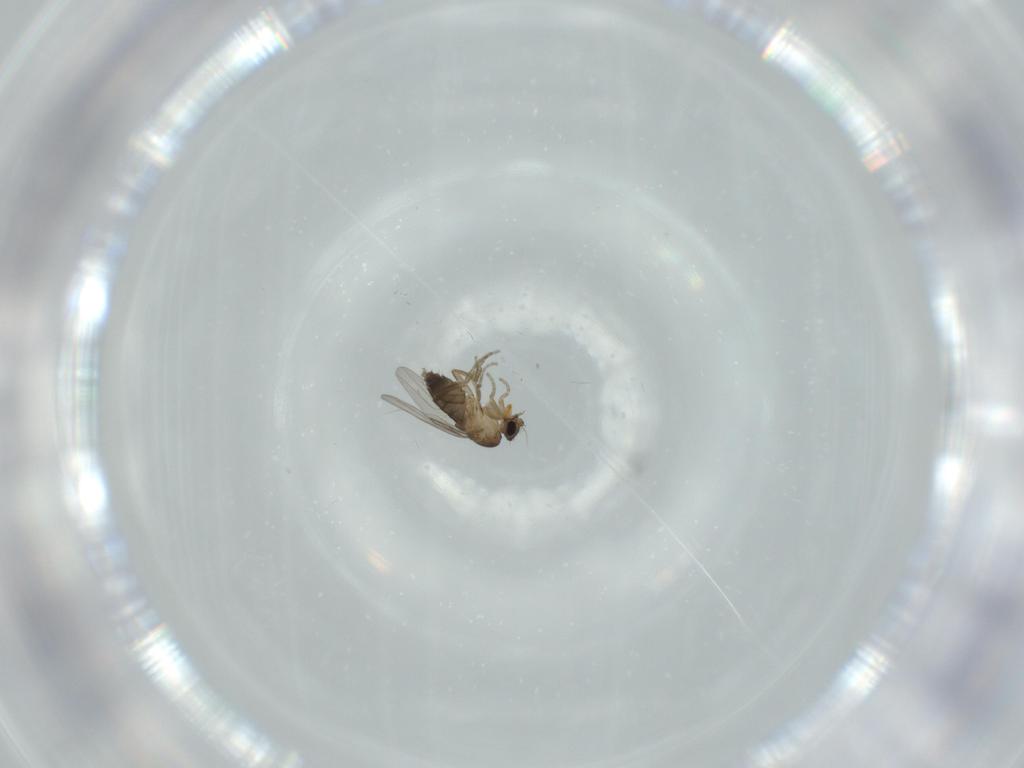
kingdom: Animalia
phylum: Arthropoda
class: Insecta
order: Diptera
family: Phoridae
